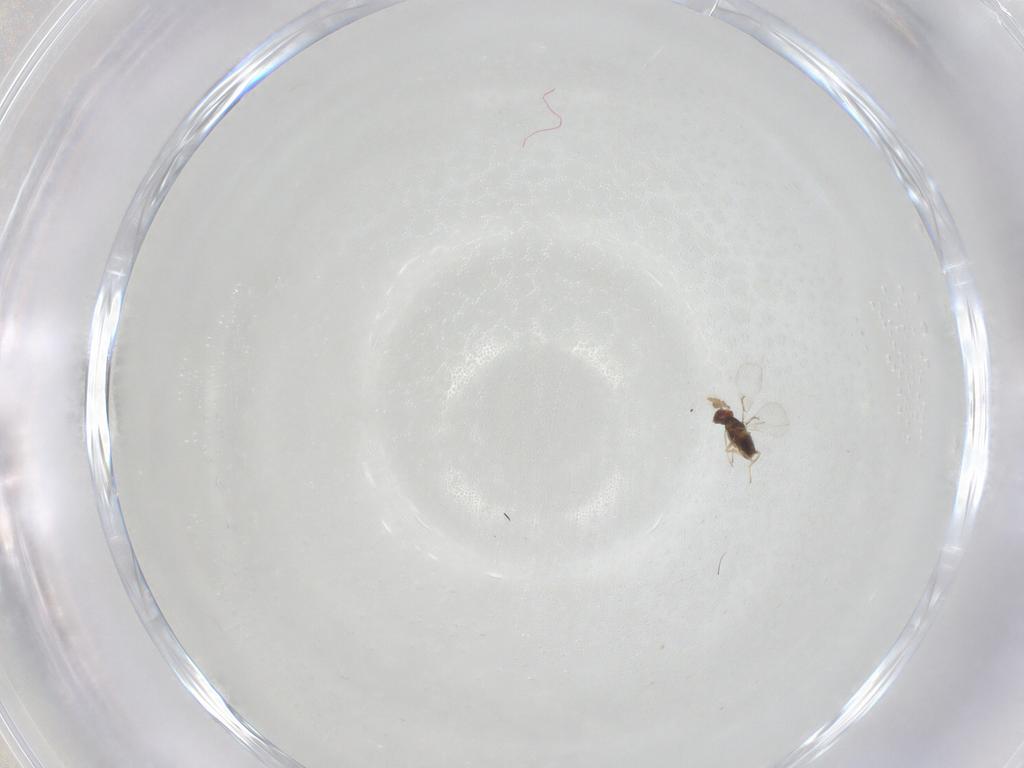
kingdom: Animalia
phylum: Arthropoda
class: Insecta
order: Hymenoptera
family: Trichogrammatidae
